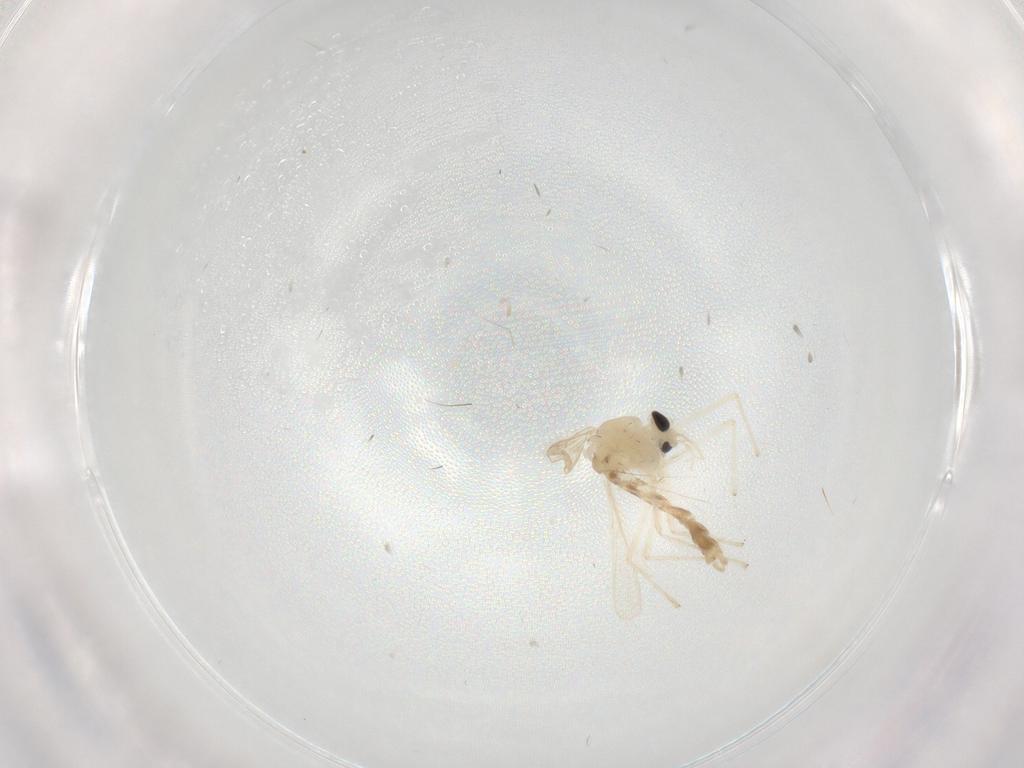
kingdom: Animalia
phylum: Arthropoda
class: Insecta
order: Diptera
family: Chironomidae
